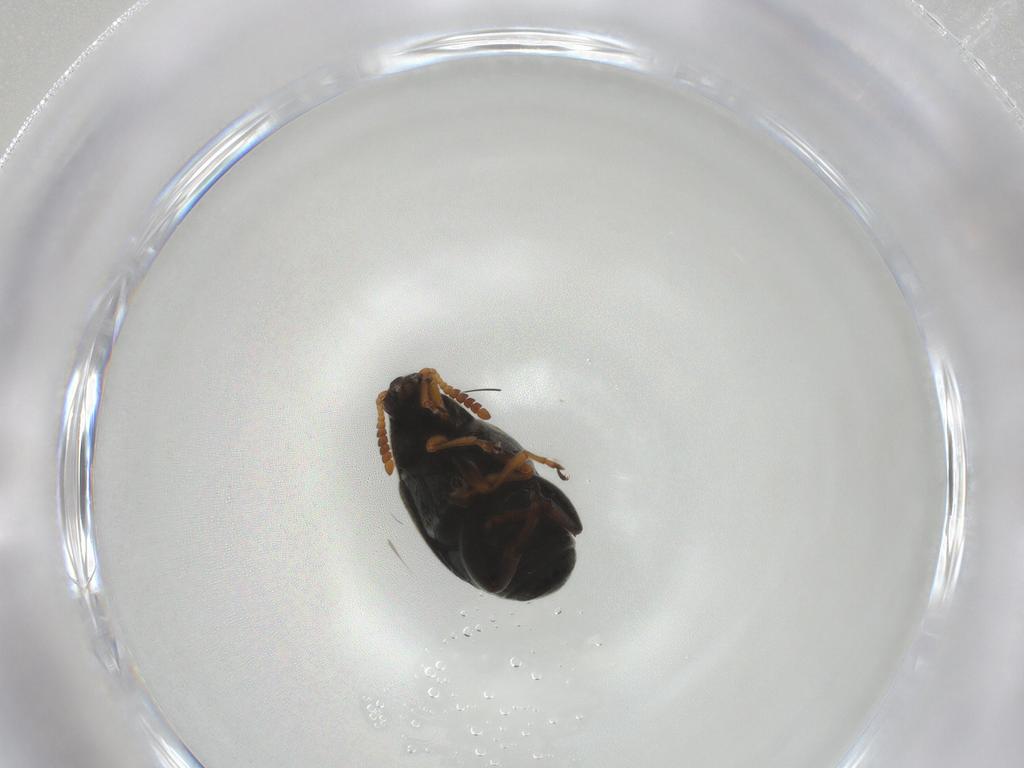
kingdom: Animalia
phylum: Arthropoda
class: Insecta
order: Coleoptera
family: Chrysomelidae
